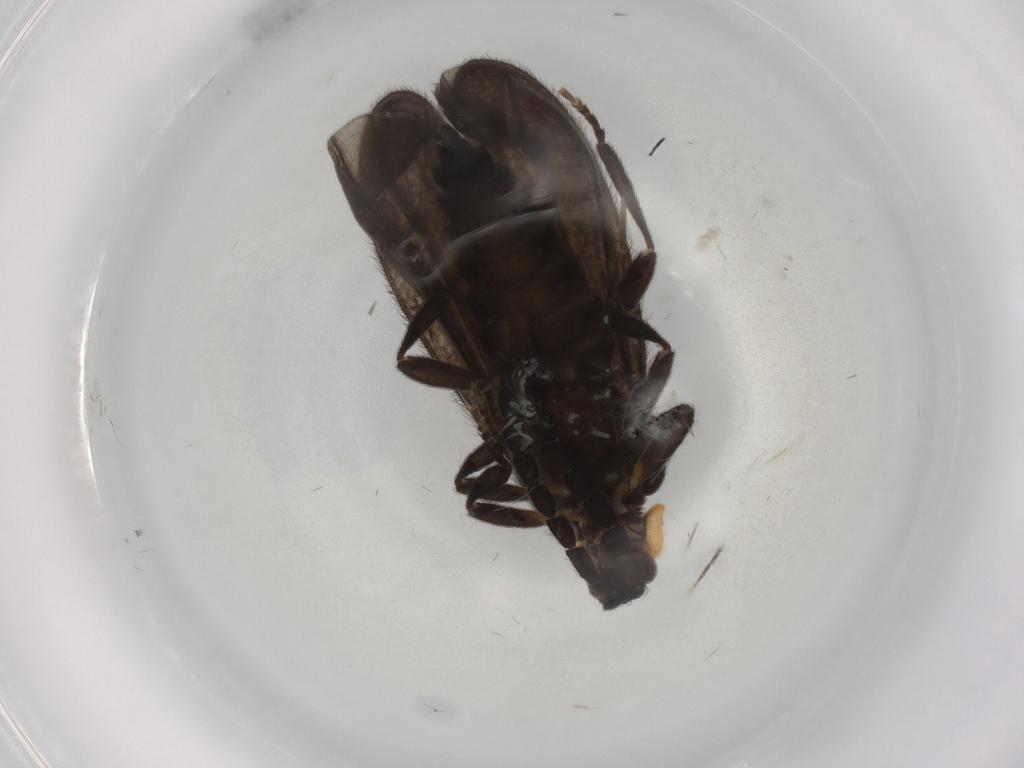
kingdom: Animalia
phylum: Arthropoda
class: Insecta
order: Coleoptera
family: Lycidae
